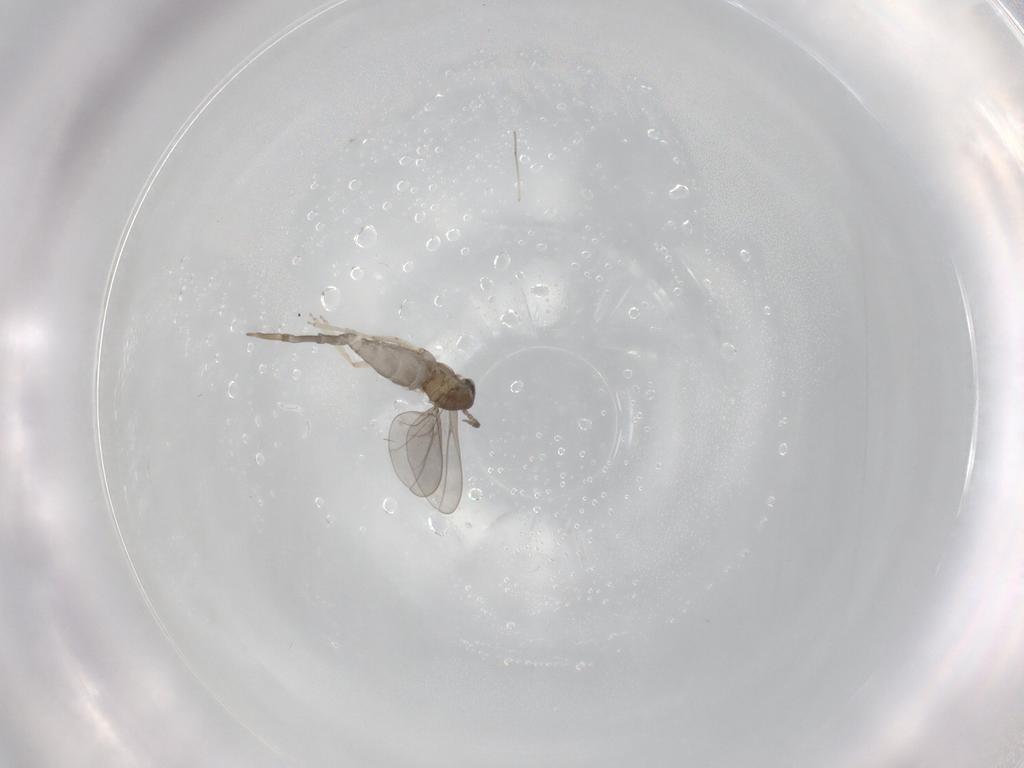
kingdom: Animalia
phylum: Arthropoda
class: Insecta
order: Diptera
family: Cecidomyiidae
